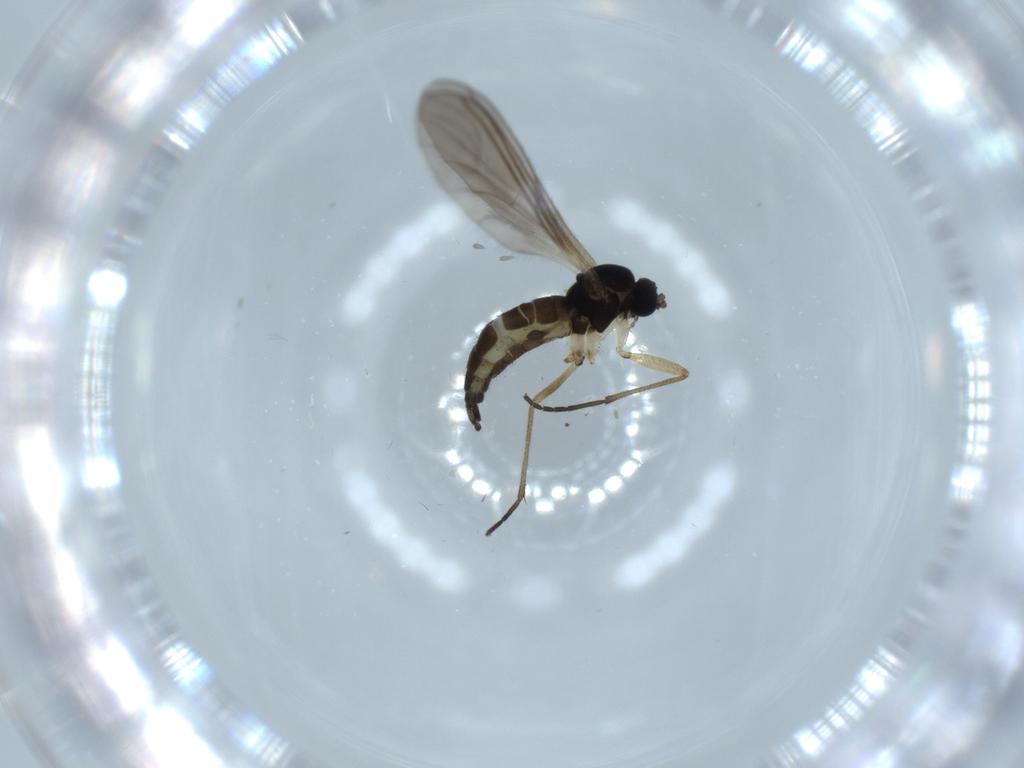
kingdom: Animalia
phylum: Arthropoda
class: Insecta
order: Diptera
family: Sciaridae
